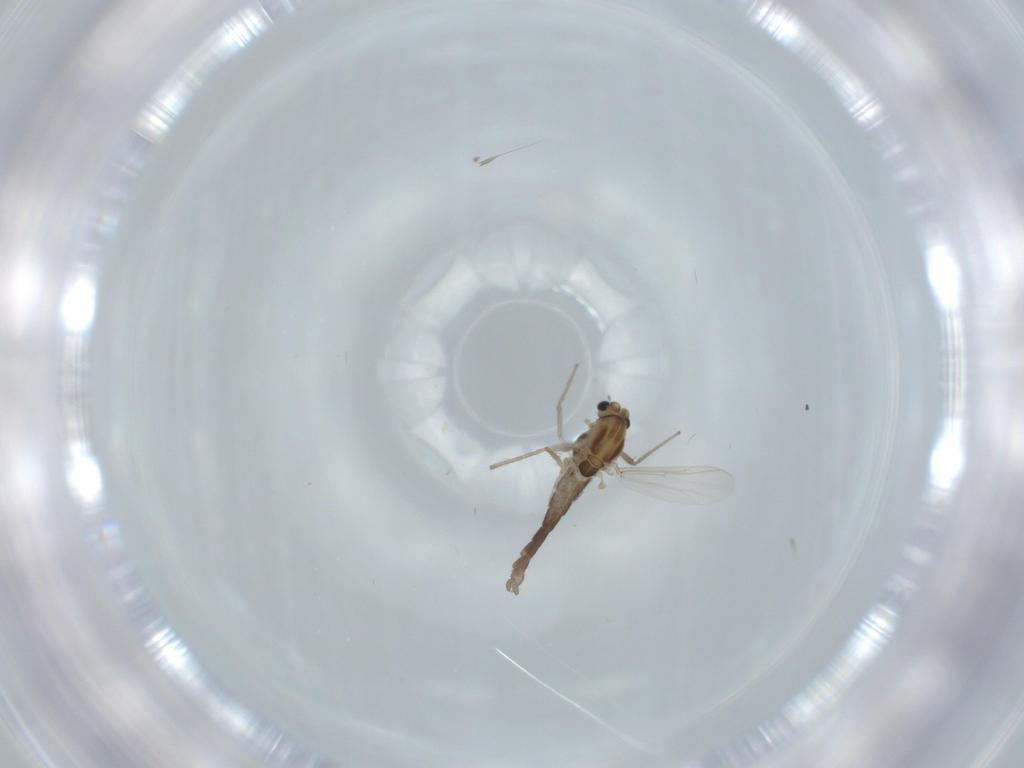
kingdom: Animalia
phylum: Arthropoda
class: Insecta
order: Diptera
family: Chironomidae
